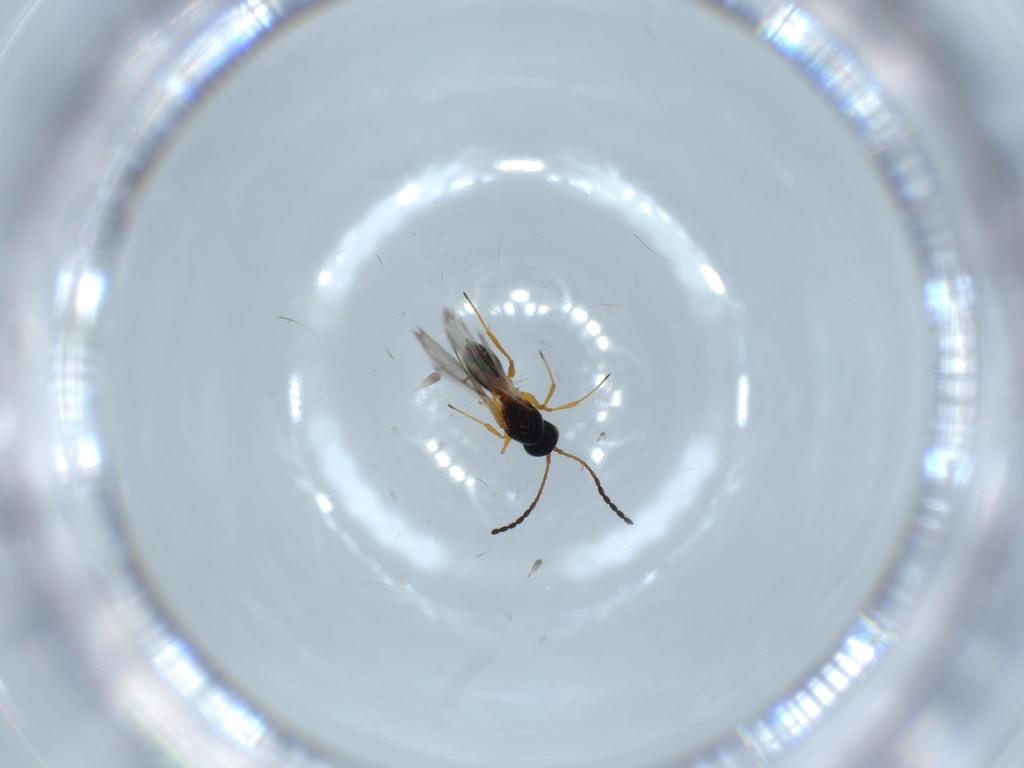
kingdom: Animalia
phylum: Arthropoda
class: Insecta
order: Hymenoptera
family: Figitidae
